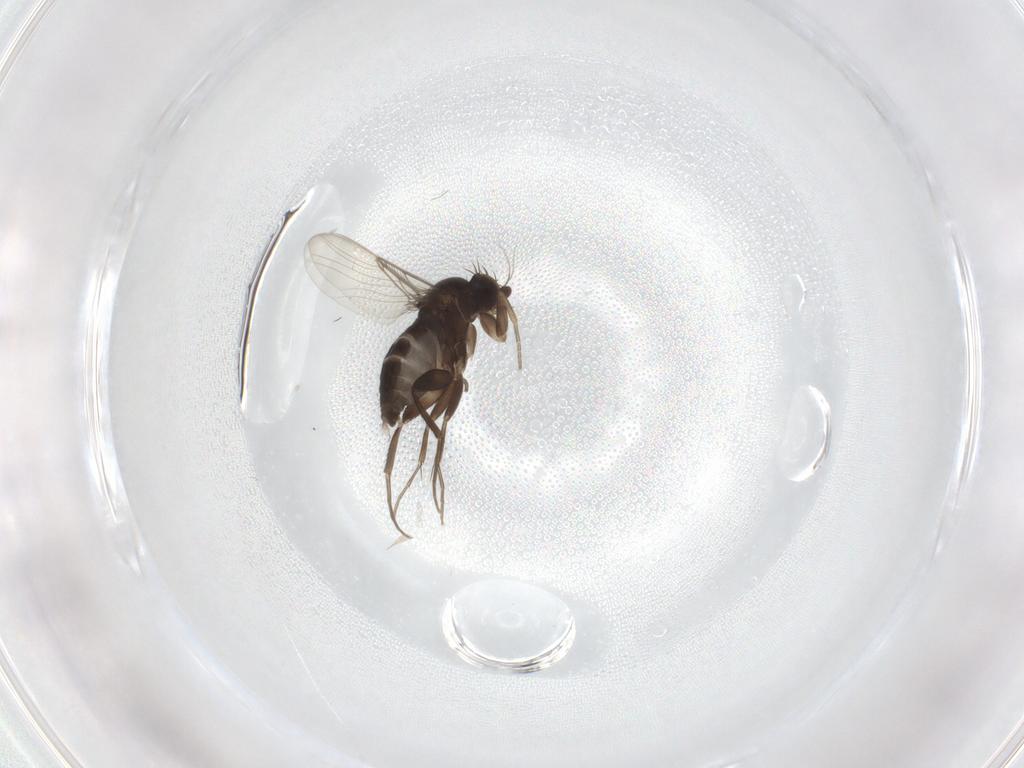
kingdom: Animalia
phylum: Arthropoda
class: Insecta
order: Diptera
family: Phoridae
